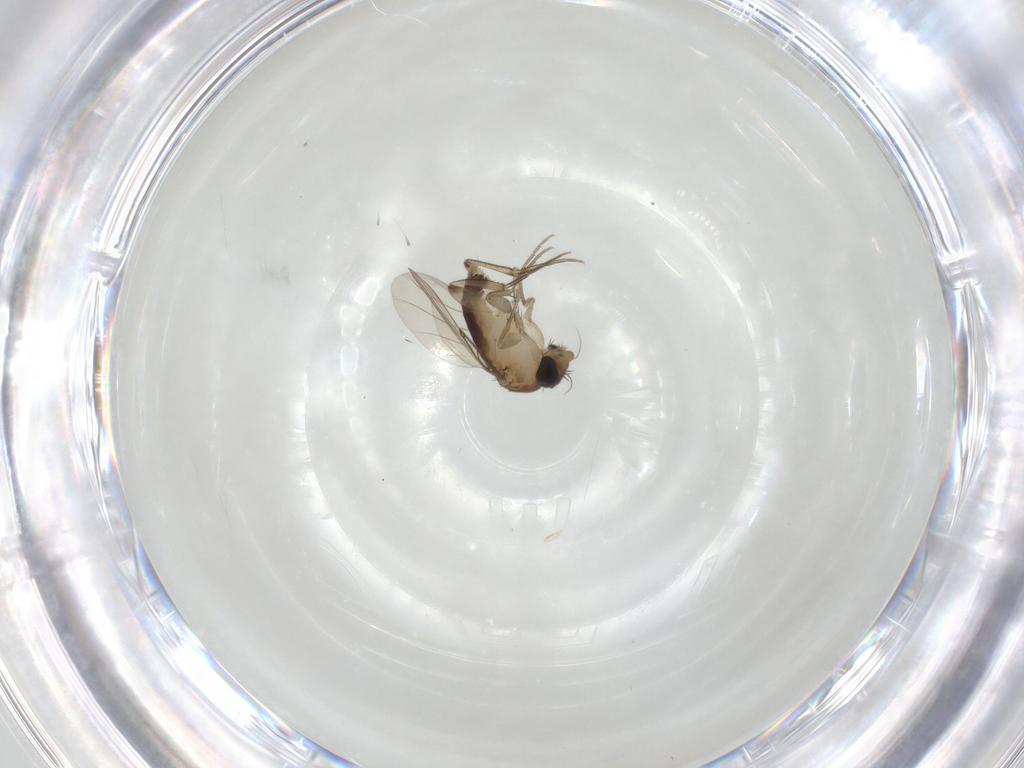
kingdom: Animalia
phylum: Arthropoda
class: Insecta
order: Diptera
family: Phoridae
